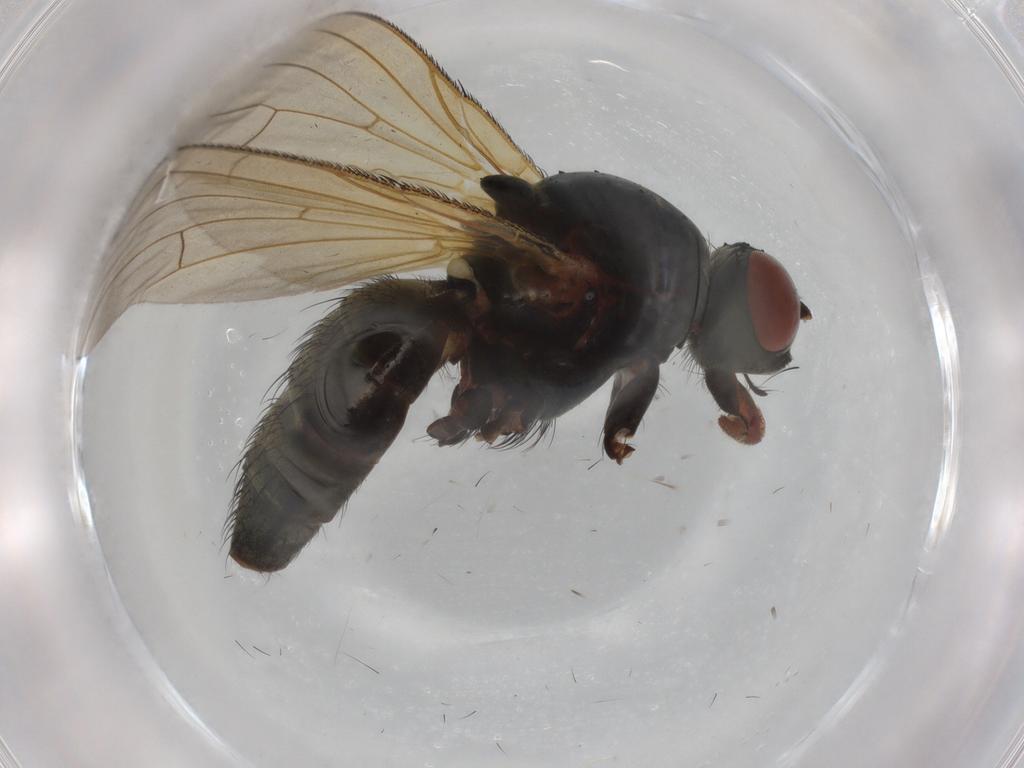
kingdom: Animalia
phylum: Arthropoda
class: Insecta
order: Diptera
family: Anthomyiidae
